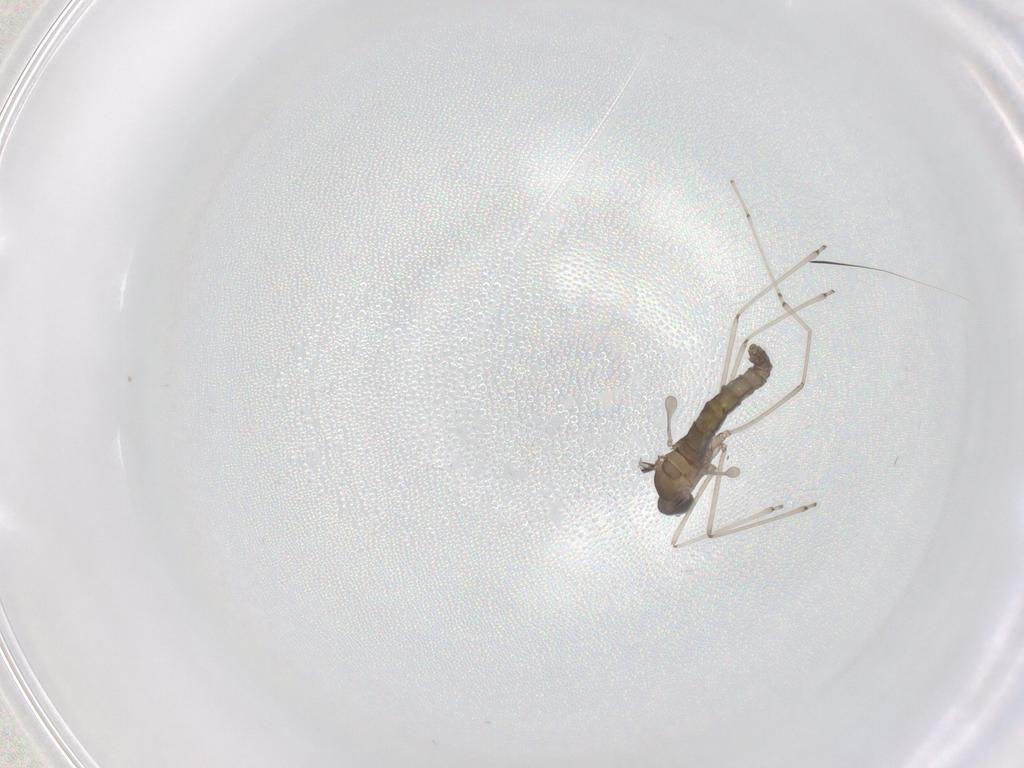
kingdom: Animalia
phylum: Arthropoda
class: Insecta
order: Diptera
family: Cecidomyiidae
